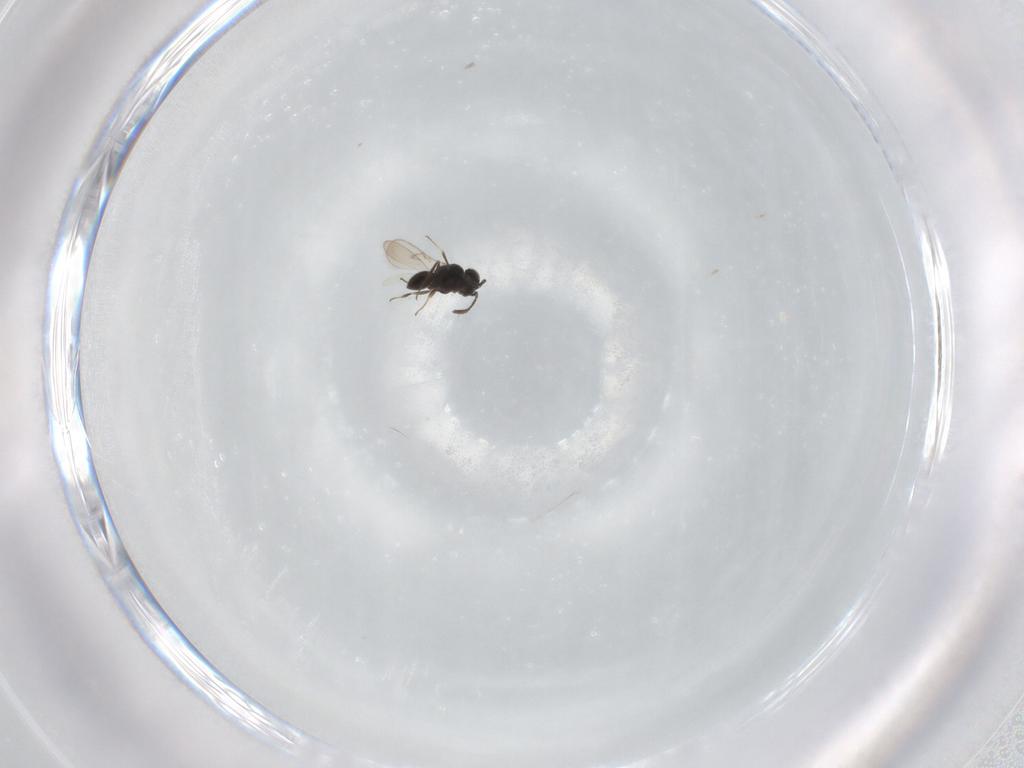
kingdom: Animalia
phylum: Arthropoda
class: Insecta
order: Hymenoptera
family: Scelionidae
